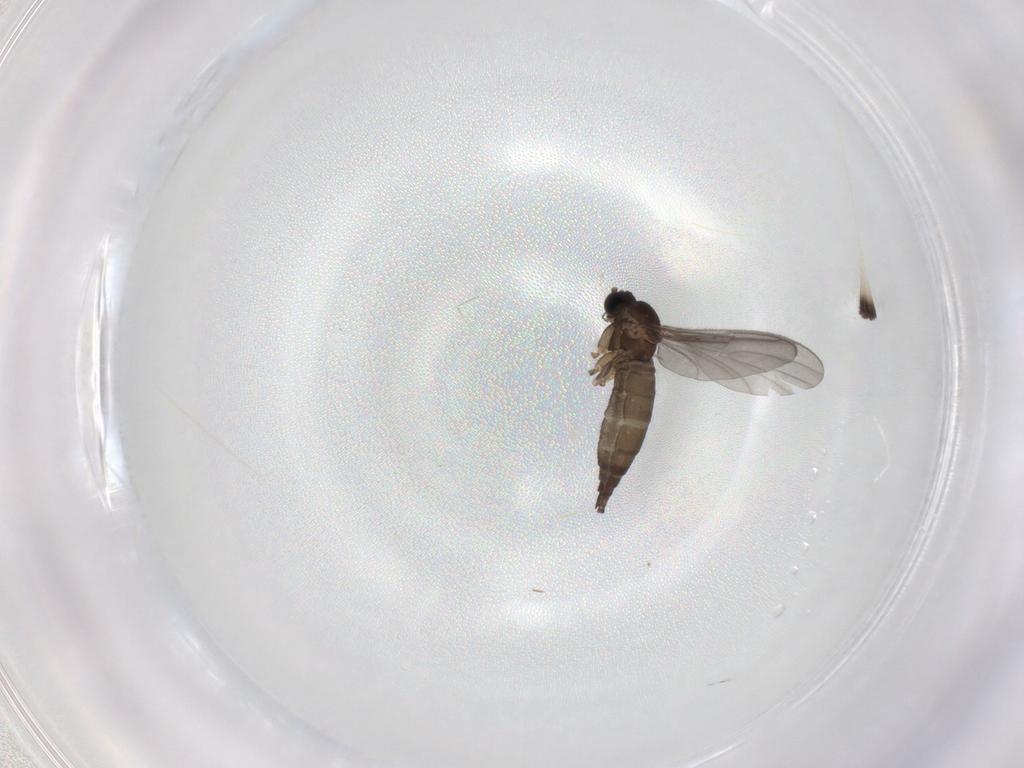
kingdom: Animalia
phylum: Arthropoda
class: Insecta
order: Diptera
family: Sciaridae
